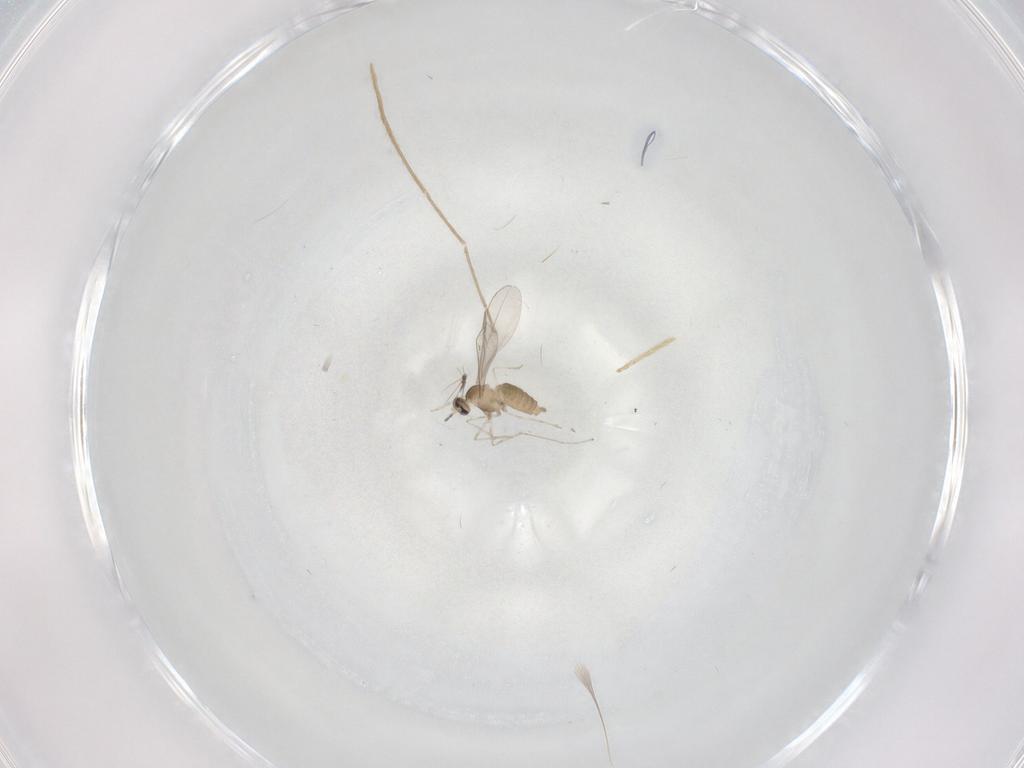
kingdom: Animalia
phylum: Arthropoda
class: Insecta
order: Diptera
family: Cecidomyiidae
